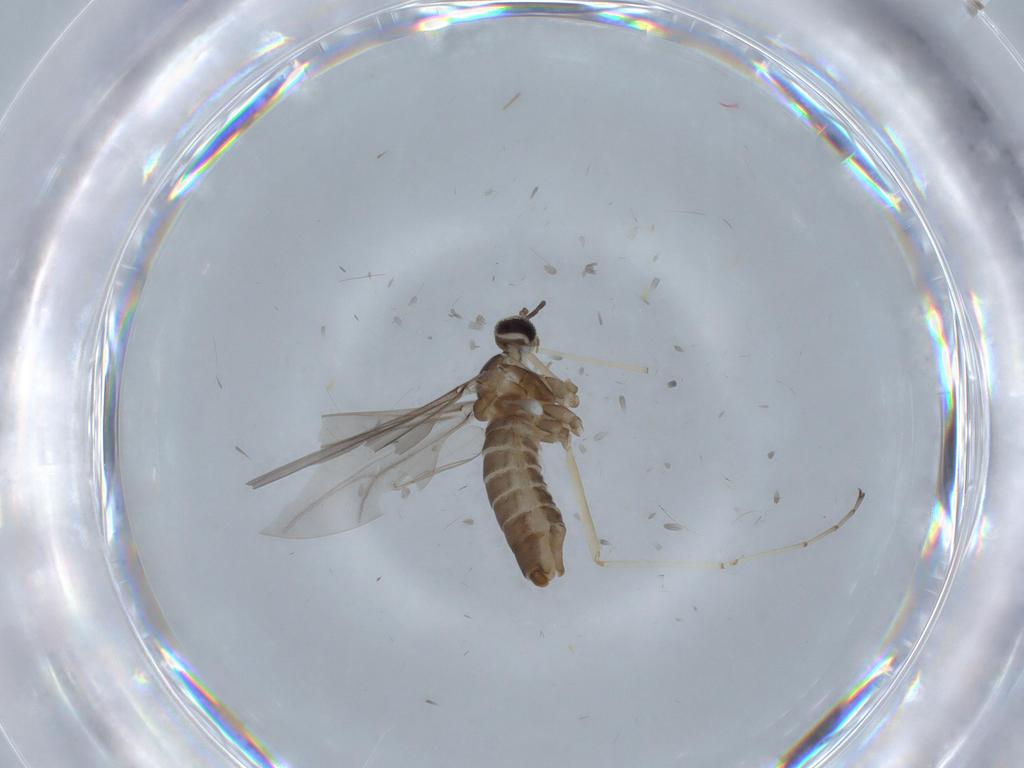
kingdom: Animalia
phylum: Arthropoda
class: Insecta
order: Diptera
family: Cecidomyiidae
